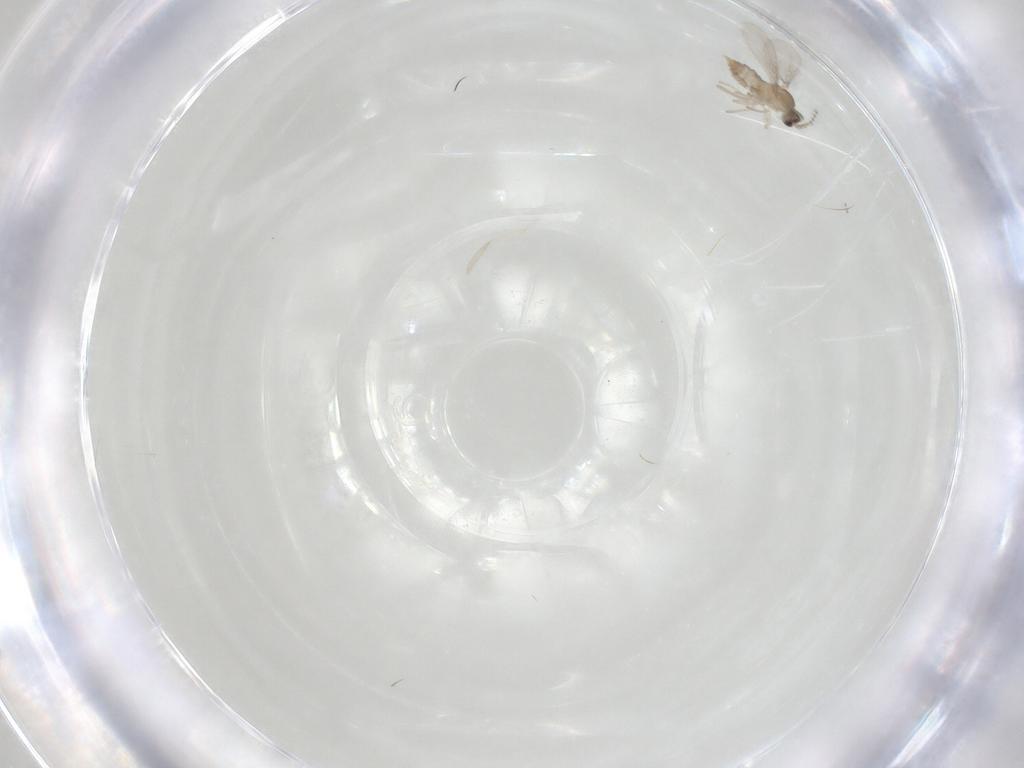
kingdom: Animalia
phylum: Arthropoda
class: Insecta
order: Diptera
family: Cecidomyiidae
